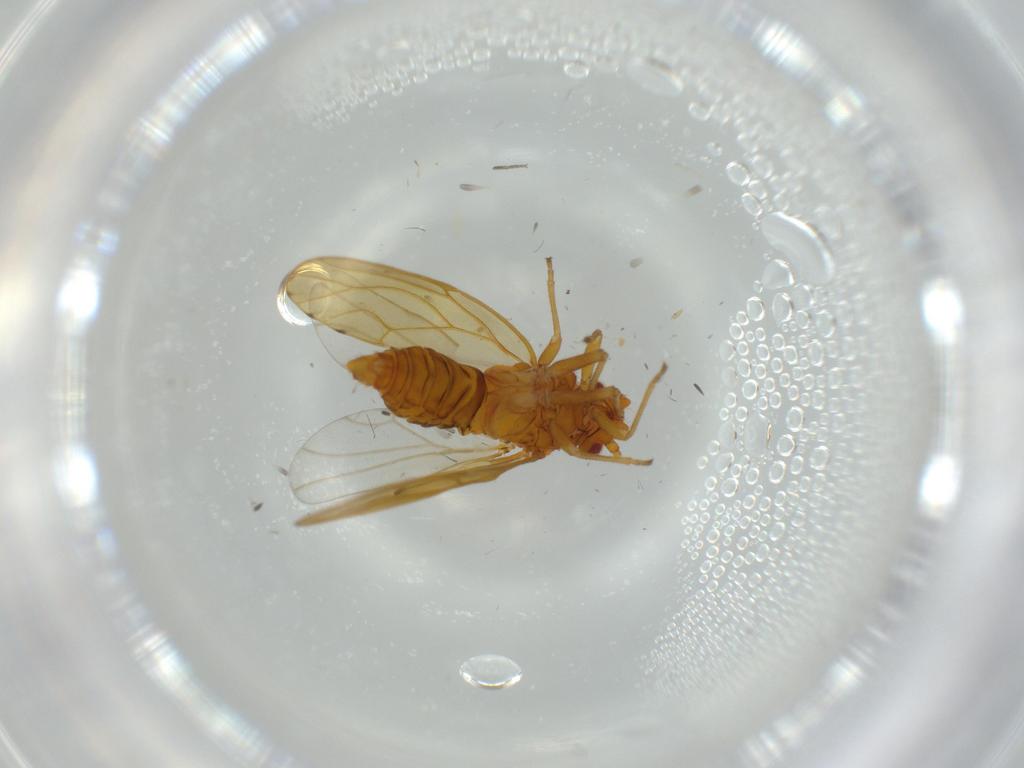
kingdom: Animalia
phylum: Arthropoda
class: Insecta
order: Hemiptera
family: Psylloidea_incertae_sedis
